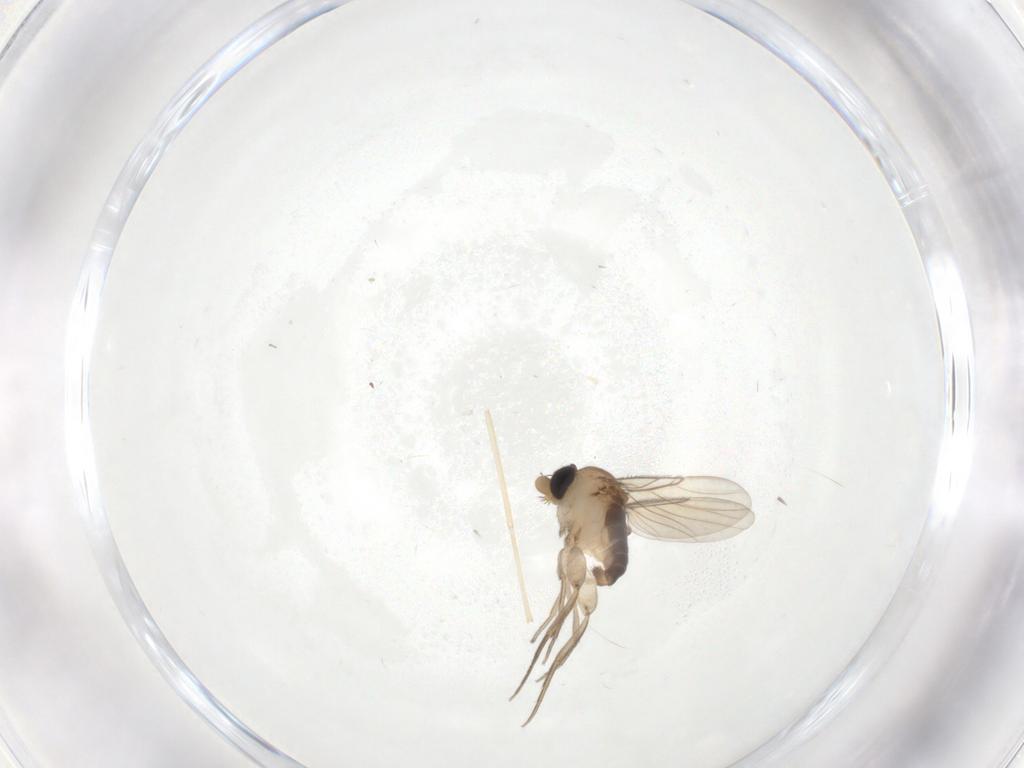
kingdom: Animalia
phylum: Arthropoda
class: Insecta
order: Diptera
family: Phoridae
